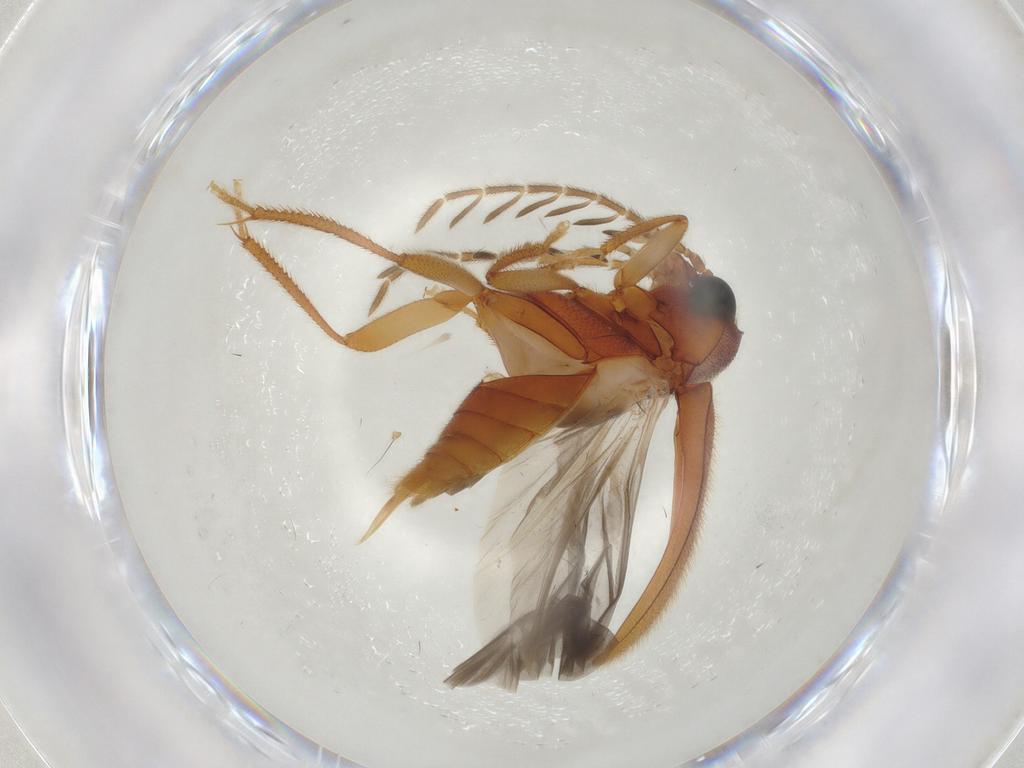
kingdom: Animalia
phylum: Arthropoda
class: Insecta
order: Coleoptera
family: Ptilodactylidae
